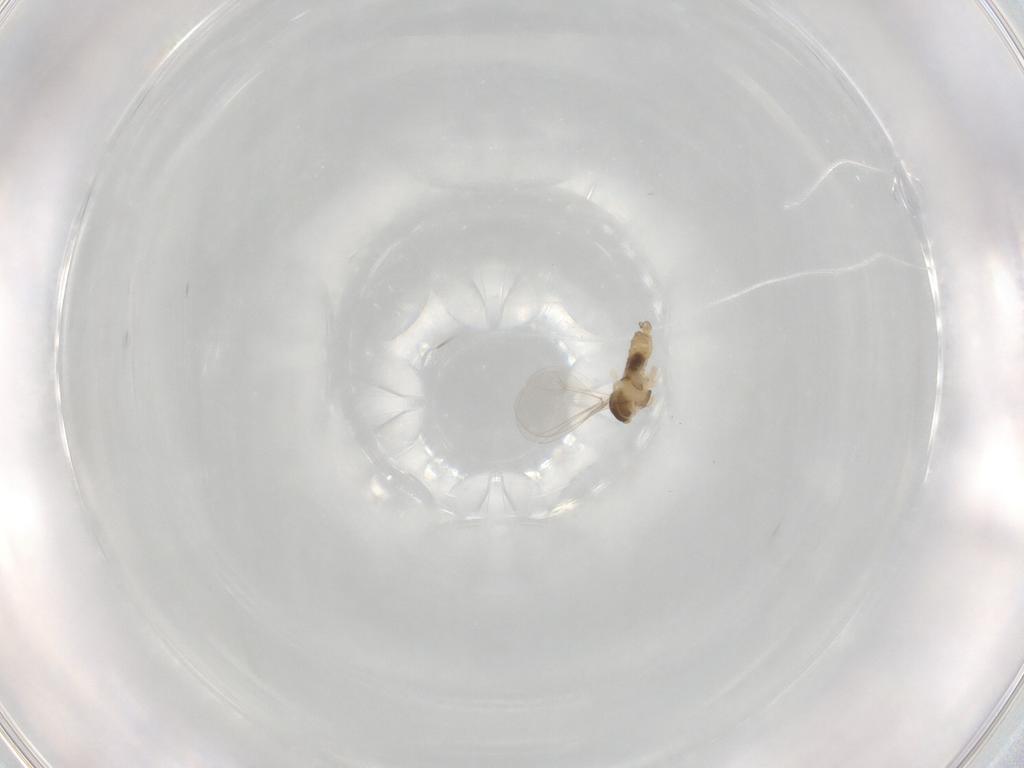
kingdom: Animalia
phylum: Arthropoda
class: Insecta
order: Diptera
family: Cecidomyiidae
